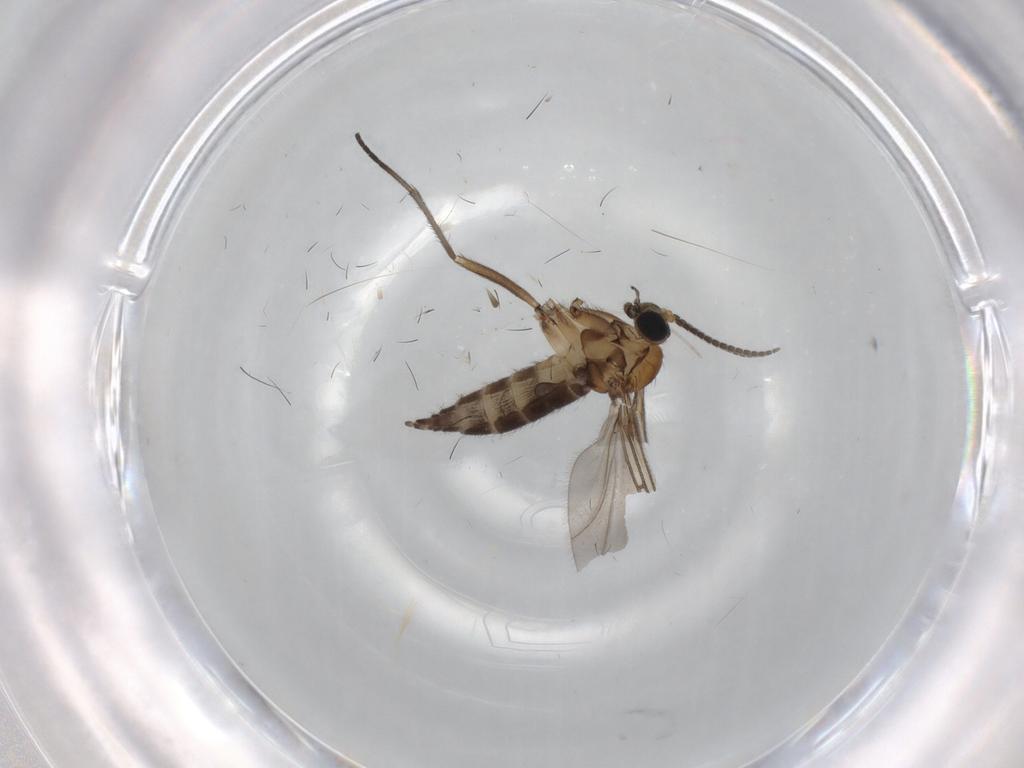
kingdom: Animalia
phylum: Arthropoda
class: Insecta
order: Diptera
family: Sciaridae
